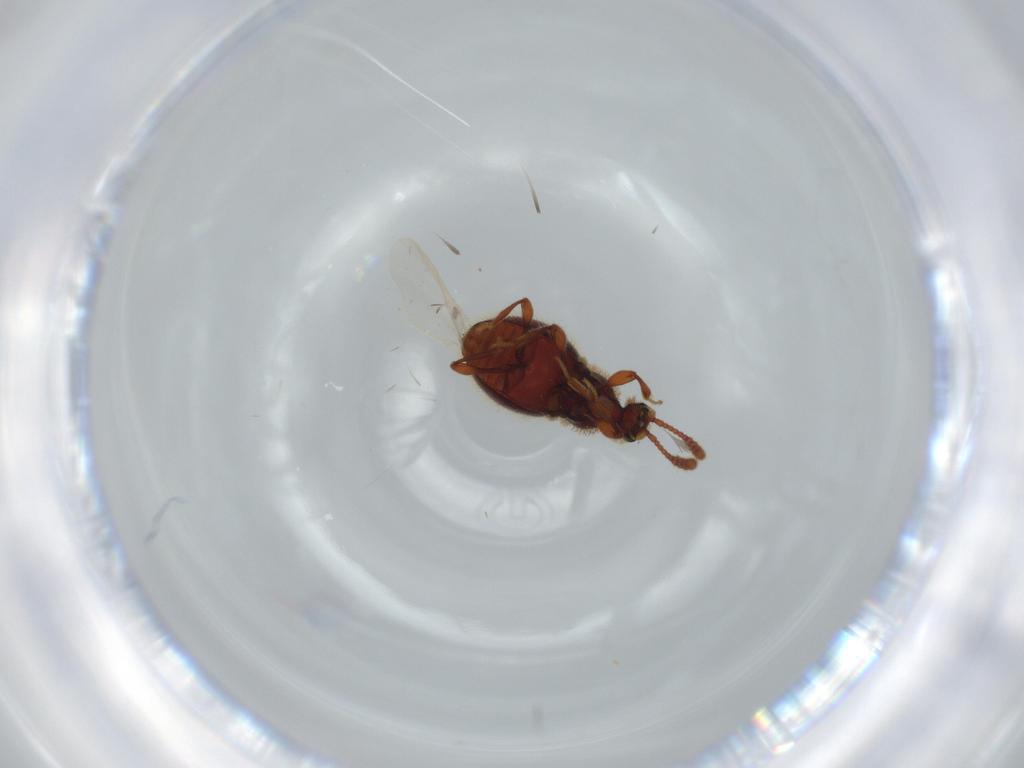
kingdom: Animalia
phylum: Arthropoda
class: Insecta
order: Coleoptera
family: Staphylinidae
